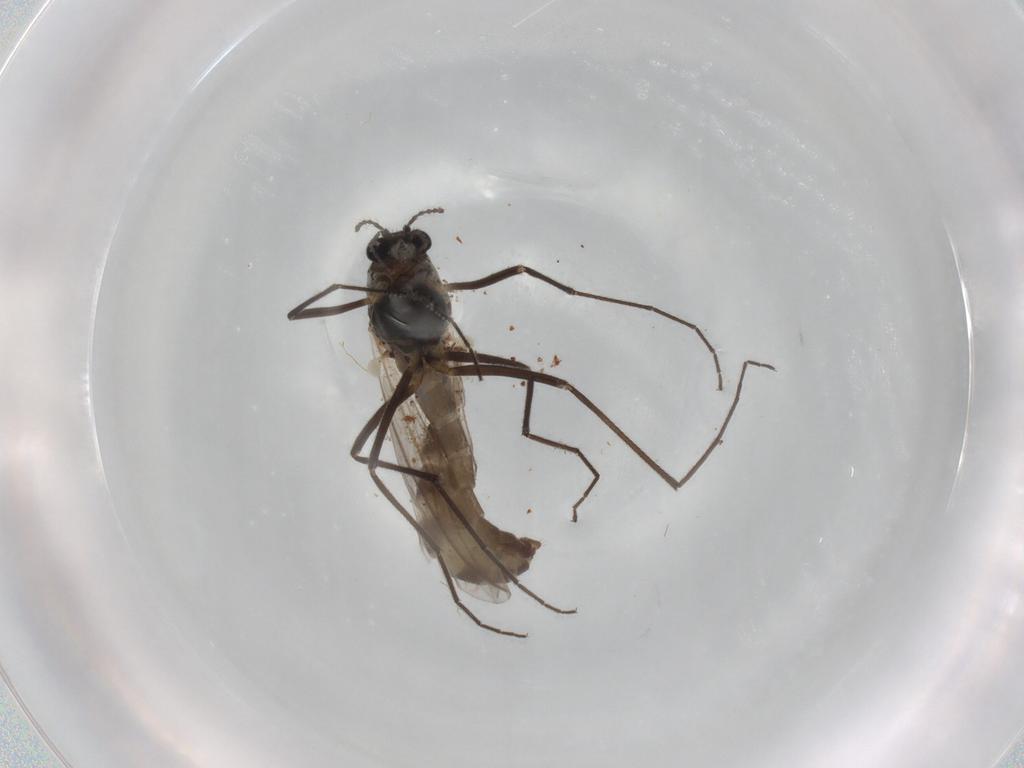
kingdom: Animalia
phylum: Arthropoda
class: Insecta
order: Diptera
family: Chironomidae
